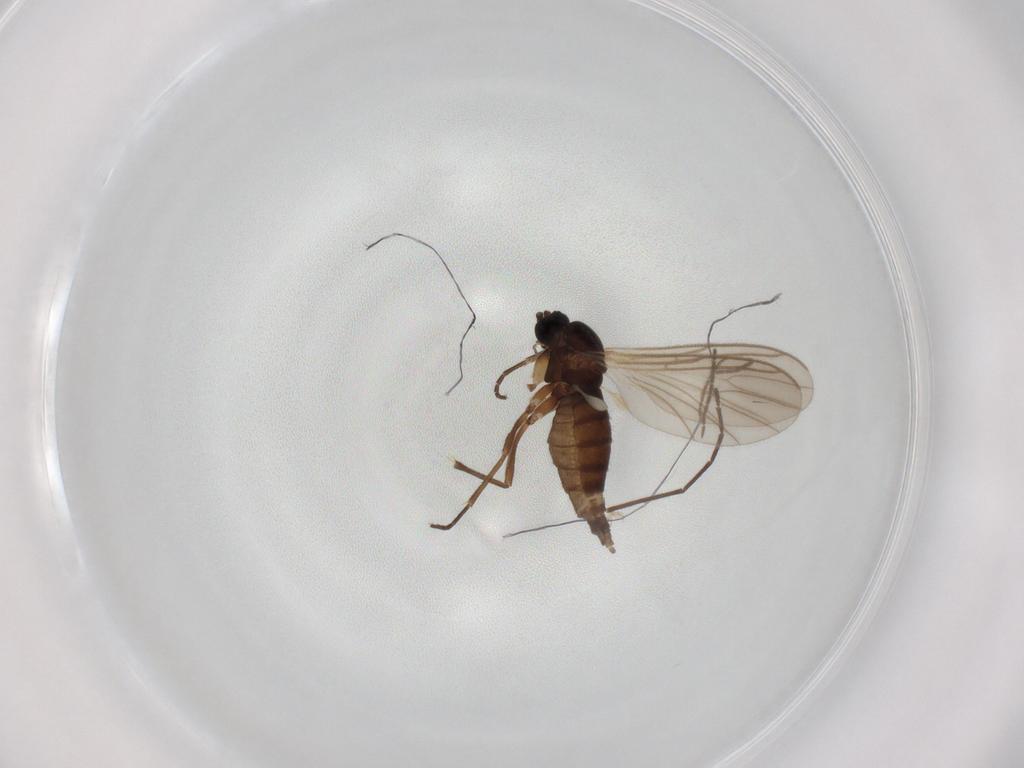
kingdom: Animalia
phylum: Arthropoda
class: Insecta
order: Diptera
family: Sciaridae
